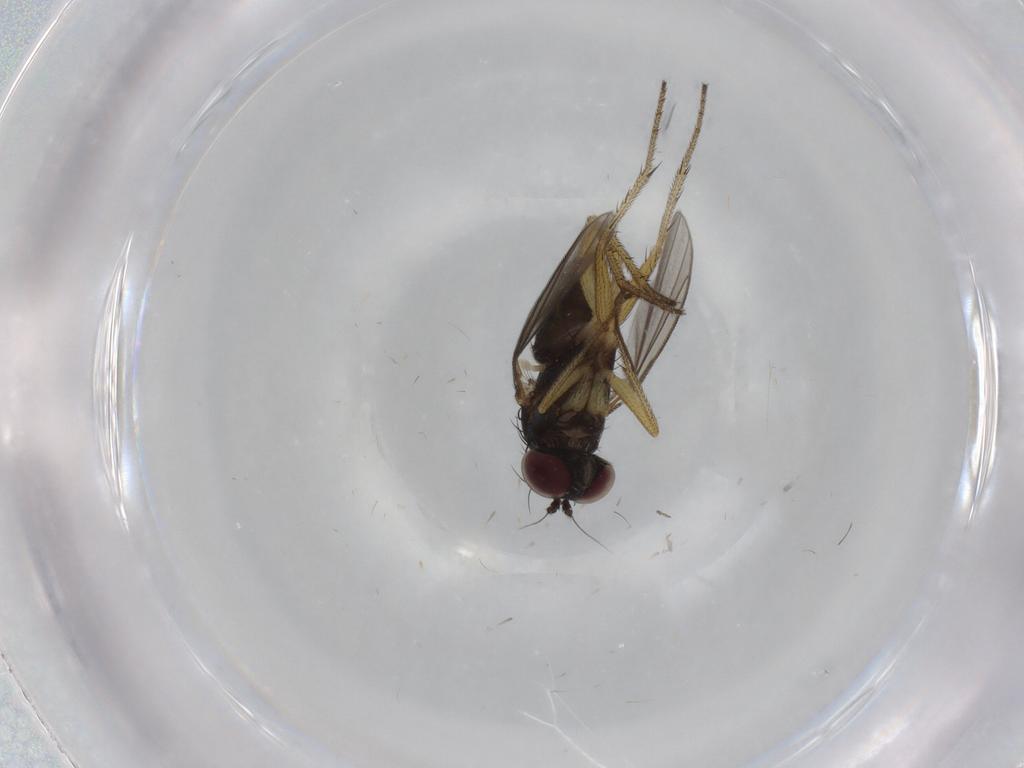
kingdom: Animalia
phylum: Arthropoda
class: Insecta
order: Diptera
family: Dolichopodidae
